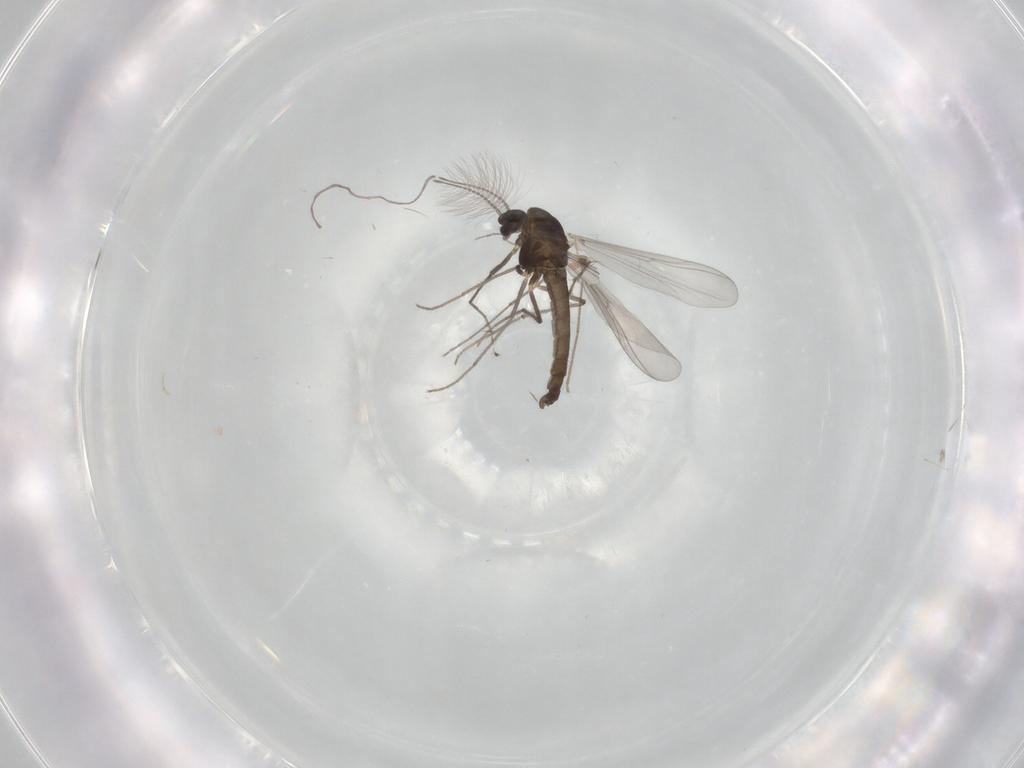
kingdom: Animalia
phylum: Arthropoda
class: Insecta
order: Diptera
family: Chironomidae
